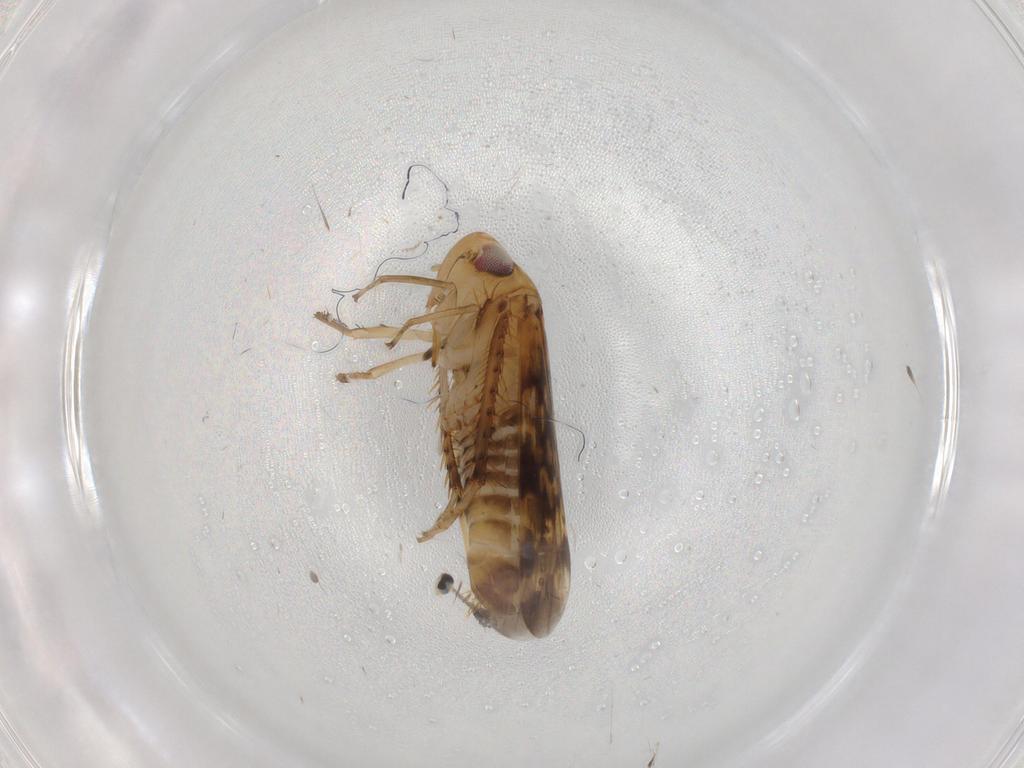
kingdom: Animalia
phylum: Arthropoda
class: Insecta
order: Hemiptera
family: Cicadellidae
